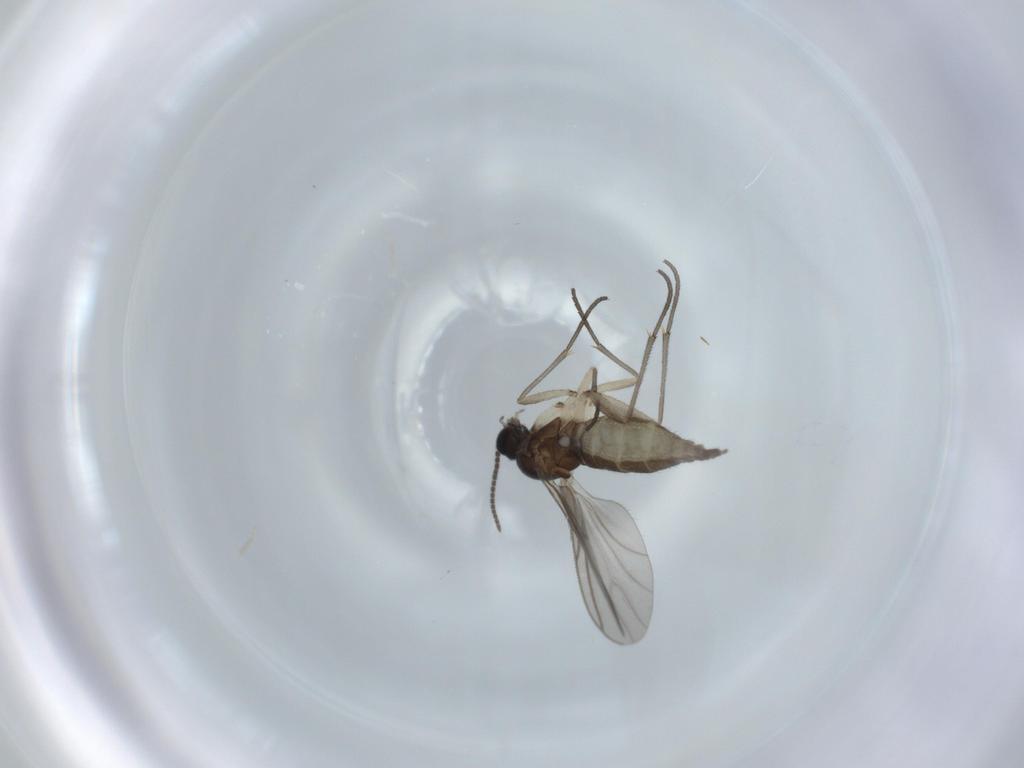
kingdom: Animalia
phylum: Arthropoda
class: Insecta
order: Diptera
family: Sciaridae
